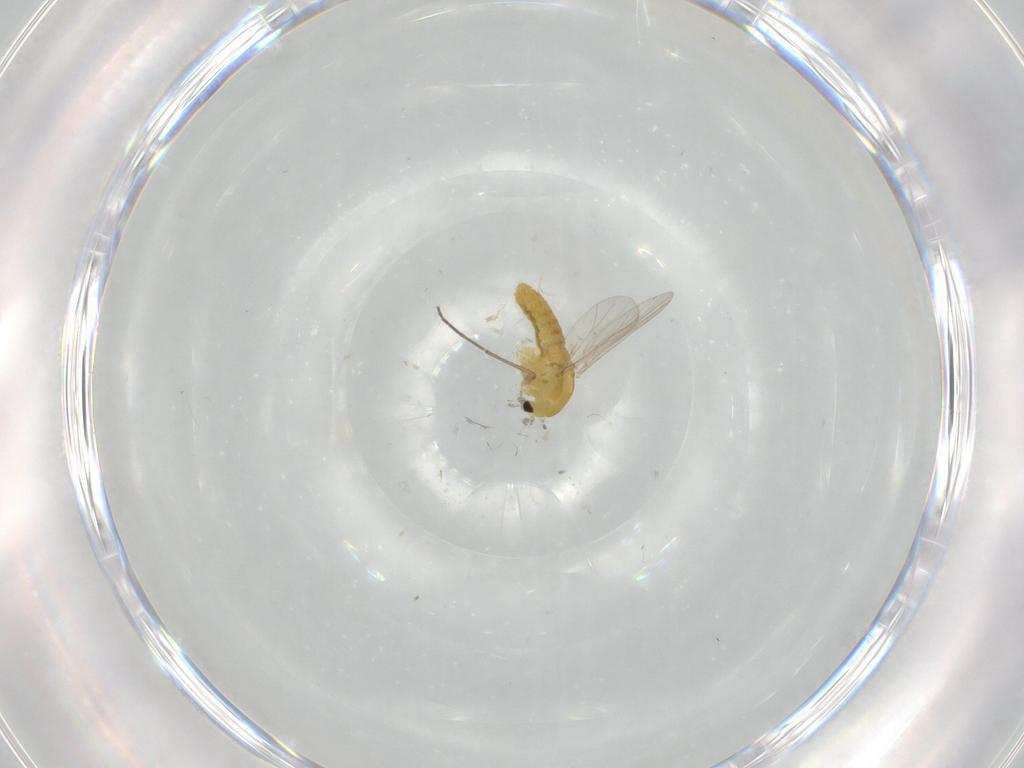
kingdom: Animalia
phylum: Arthropoda
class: Insecta
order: Diptera
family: Chironomidae
